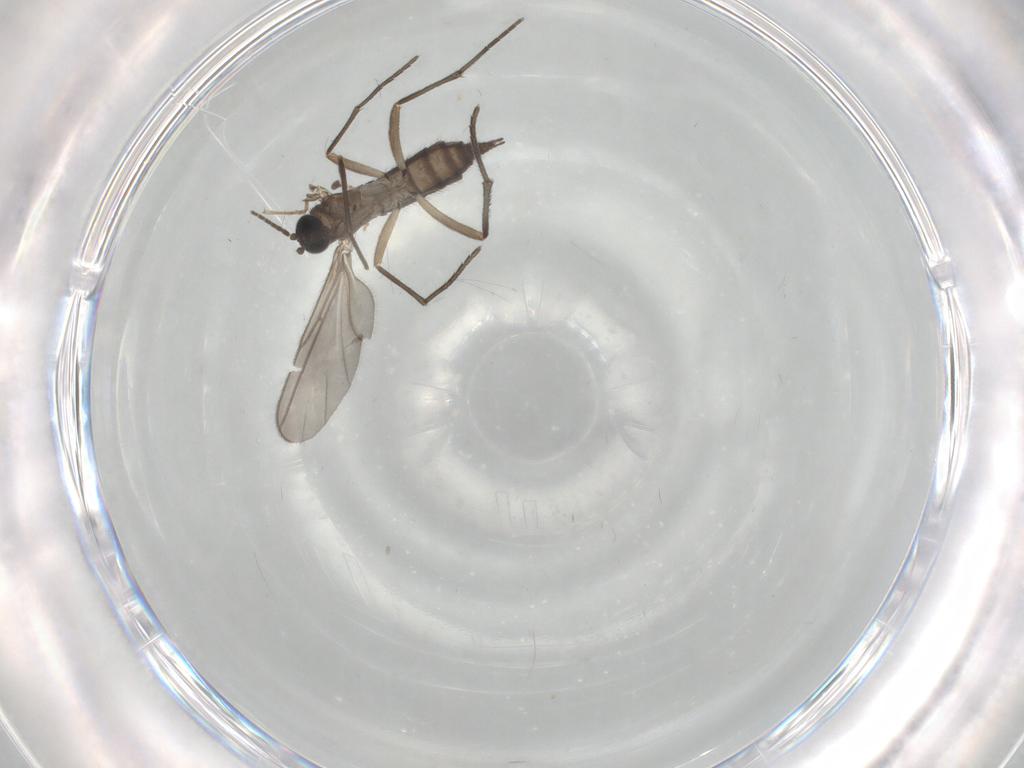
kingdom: Animalia
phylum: Arthropoda
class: Insecta
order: Diptera
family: Sciaridae
